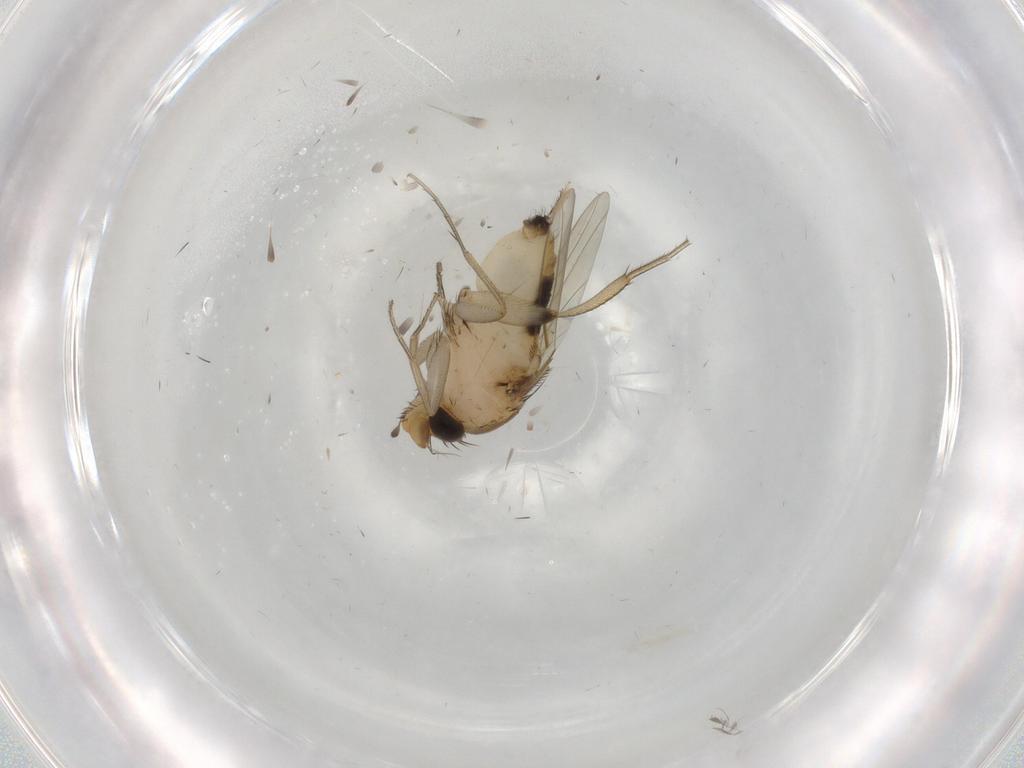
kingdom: Animalia
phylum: Arthropoda
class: Insecta
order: Diptera
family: Phoridae
